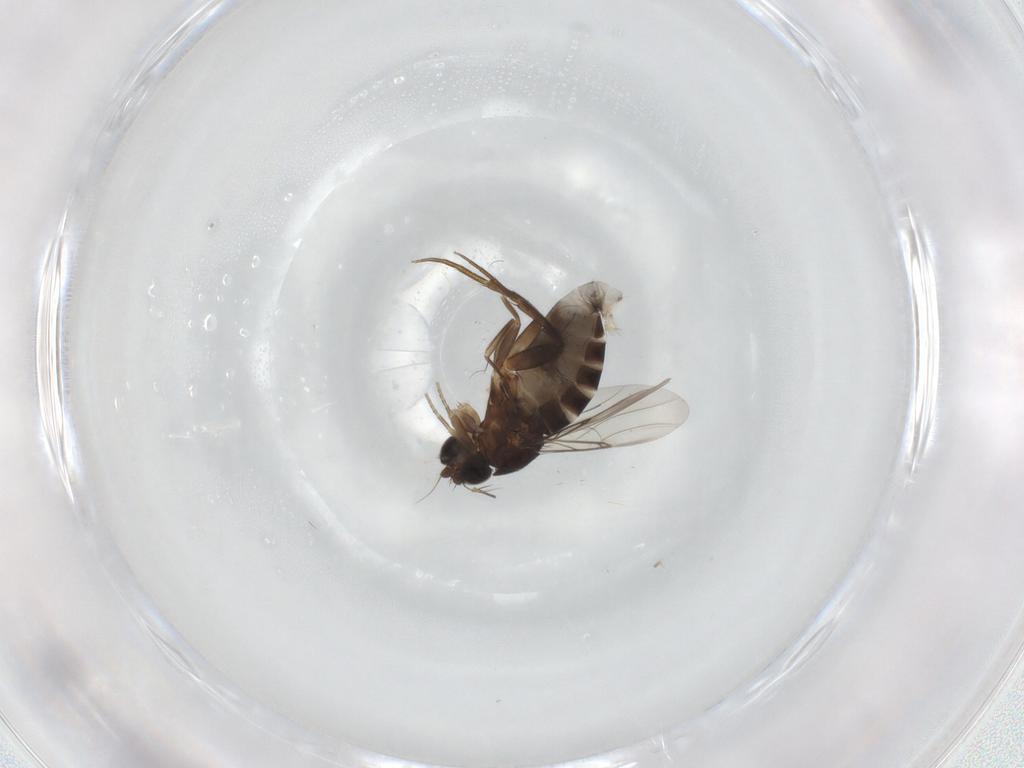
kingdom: Animalia
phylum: Arthropoda
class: Insecta
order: Diptera
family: Phoridae
